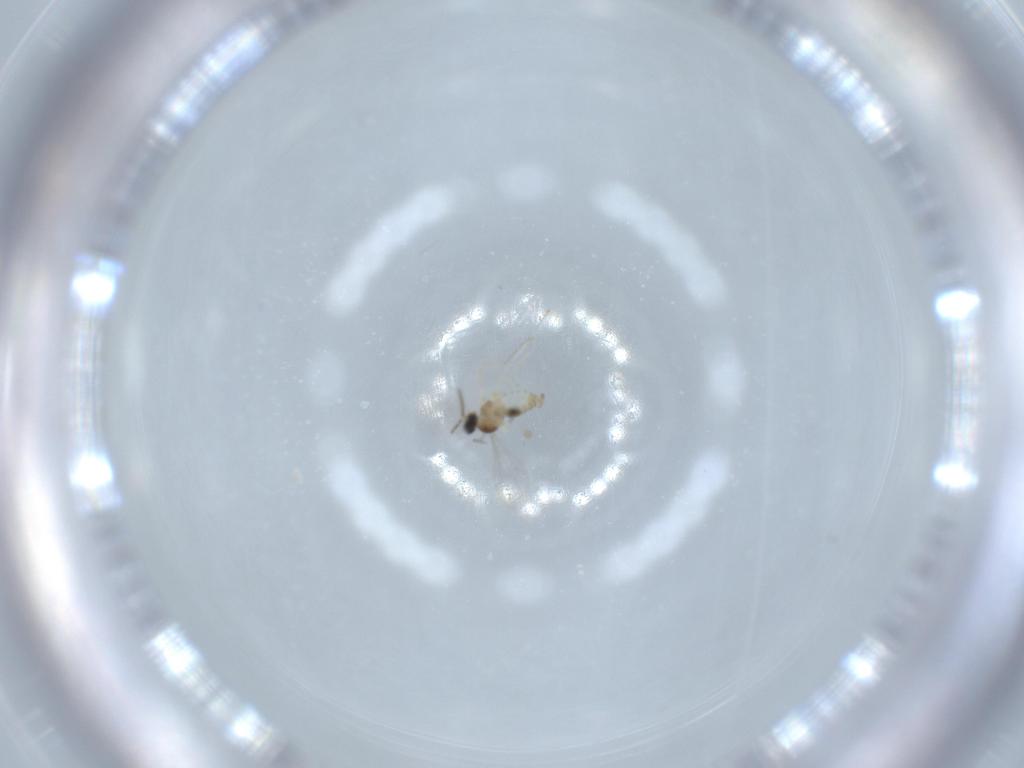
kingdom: Animalia
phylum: Arthropoda
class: Insecta
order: Diptera
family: Cecidomyiidae
